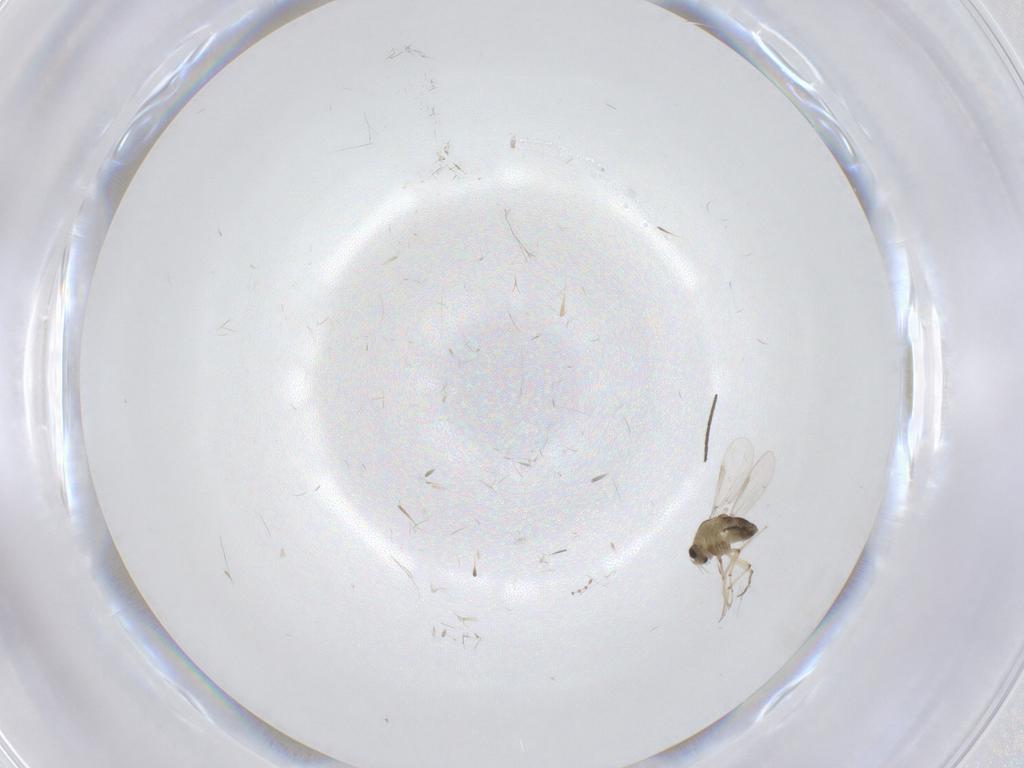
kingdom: Animalia
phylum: Arthropoda
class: Insecta
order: Diptera
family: Chironomidae
